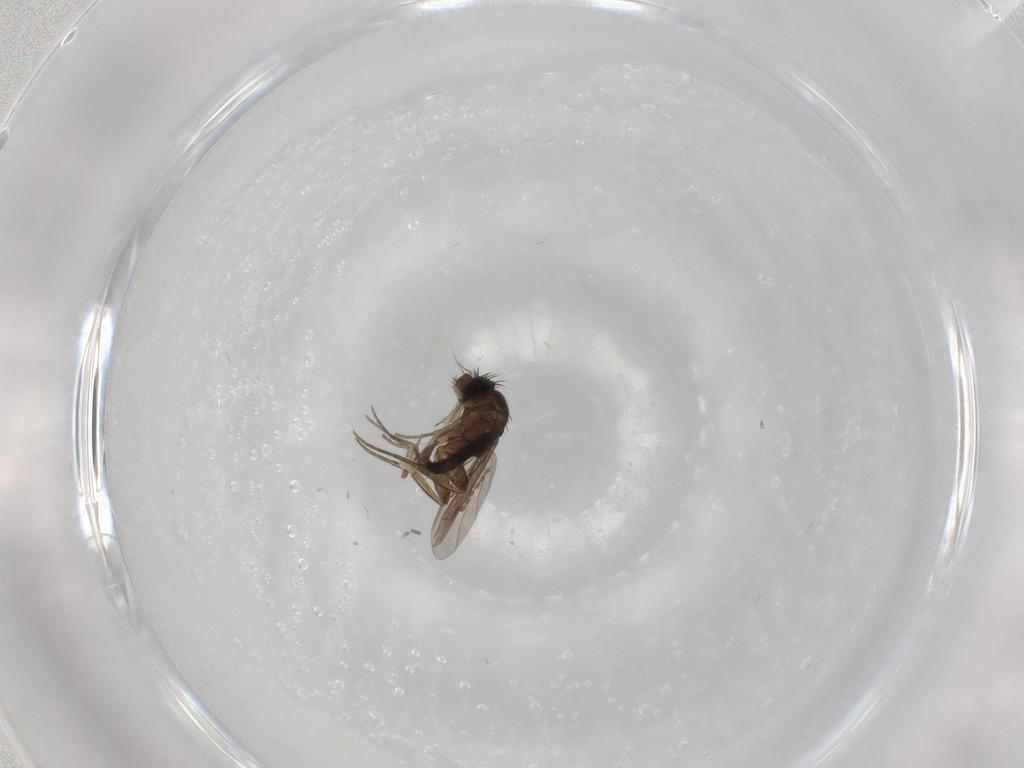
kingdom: Animalia
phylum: Arthropoda
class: Insecta
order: Diptera
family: Phoridae
